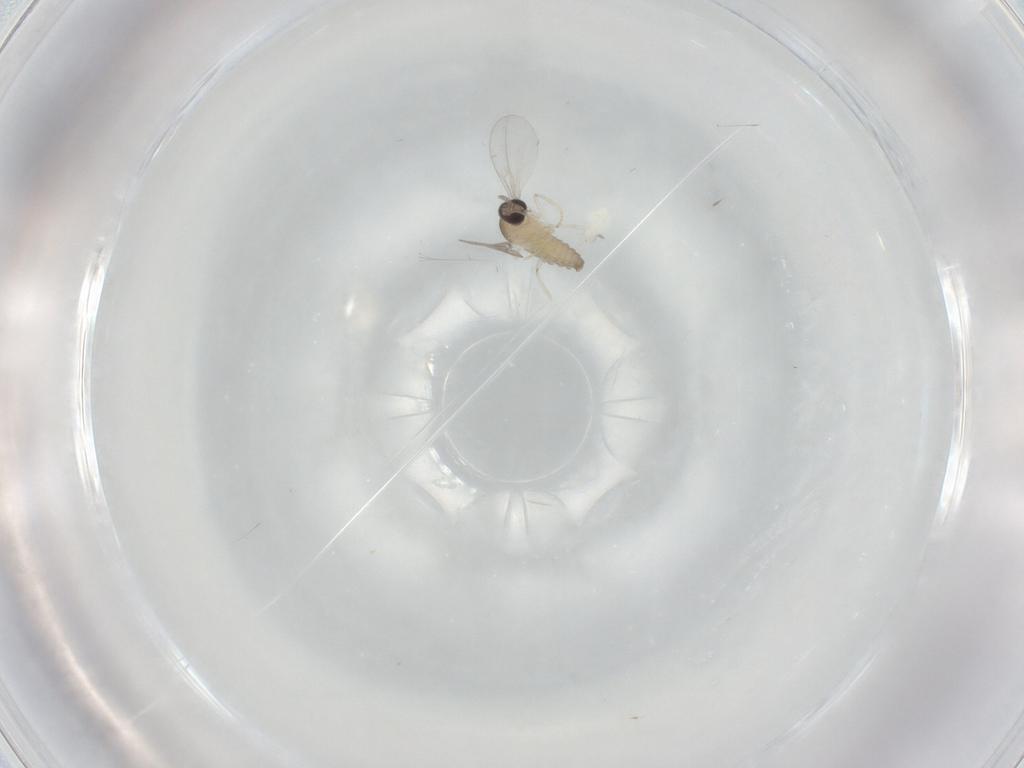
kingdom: Animalia
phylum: Arthropoda
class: Insecta
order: Diptera
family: Cecidomyiidae
